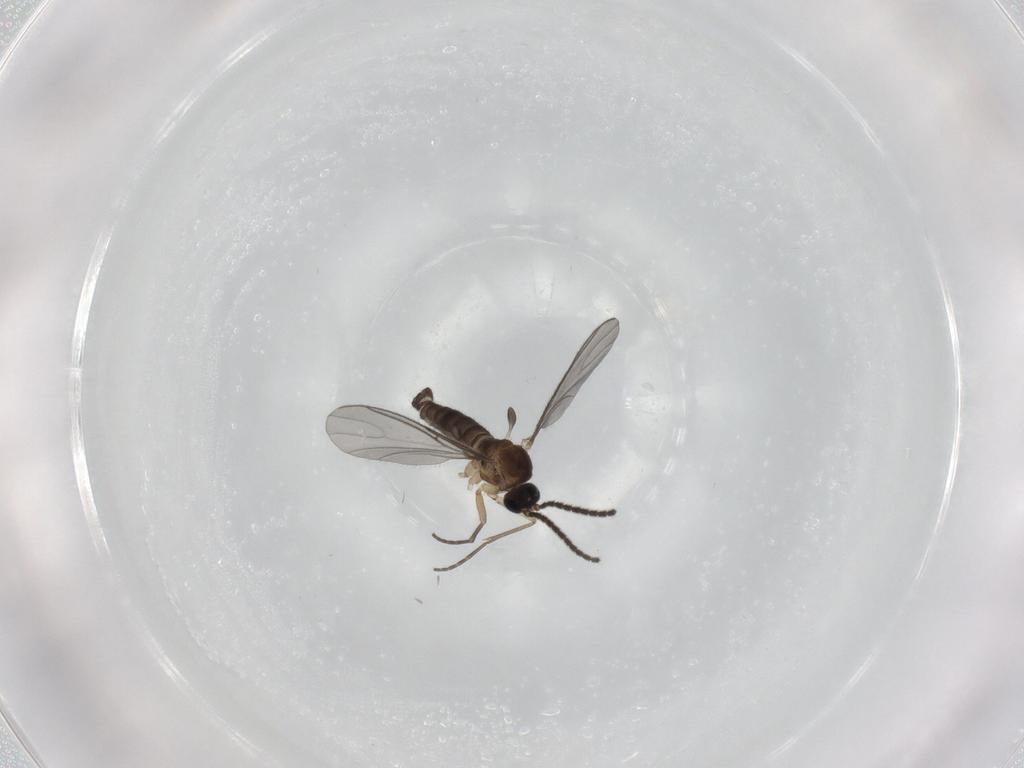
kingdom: Animalia
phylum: Arthropoda
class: Insecta
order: Diptera
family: Sciaridae
